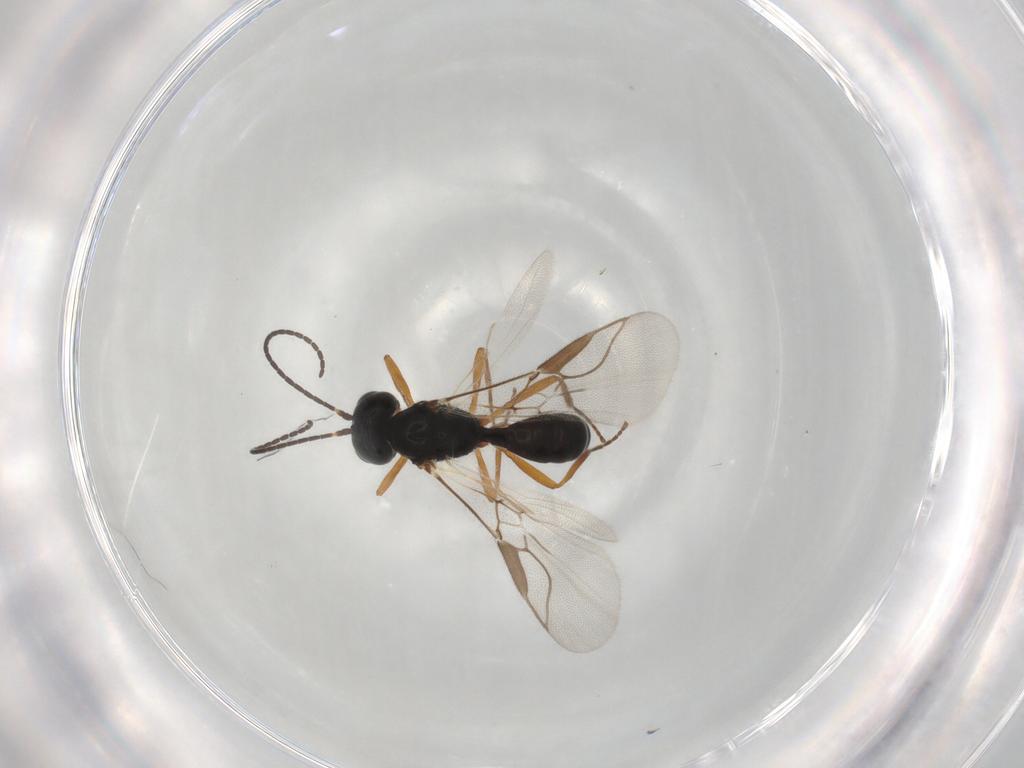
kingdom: Animalia
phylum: Arthropoda
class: Insecta
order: Hymenoptera
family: Braconidae
